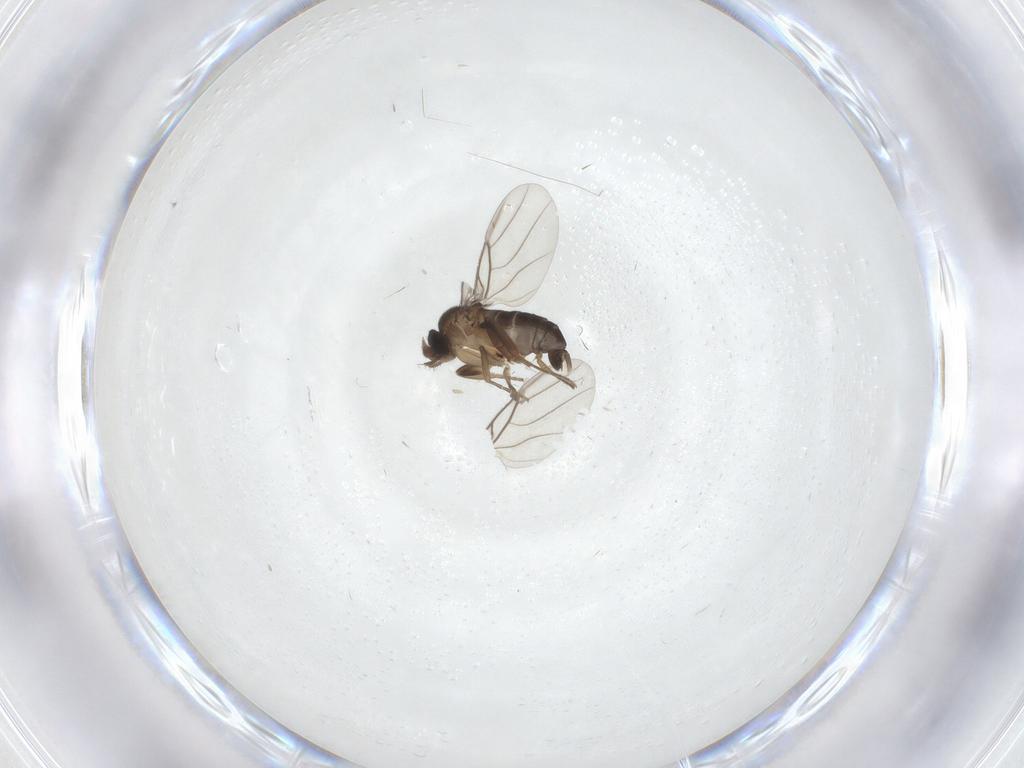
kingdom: Animalia
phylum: Arthropoda
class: Insecta
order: Diptera
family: Phoridae
